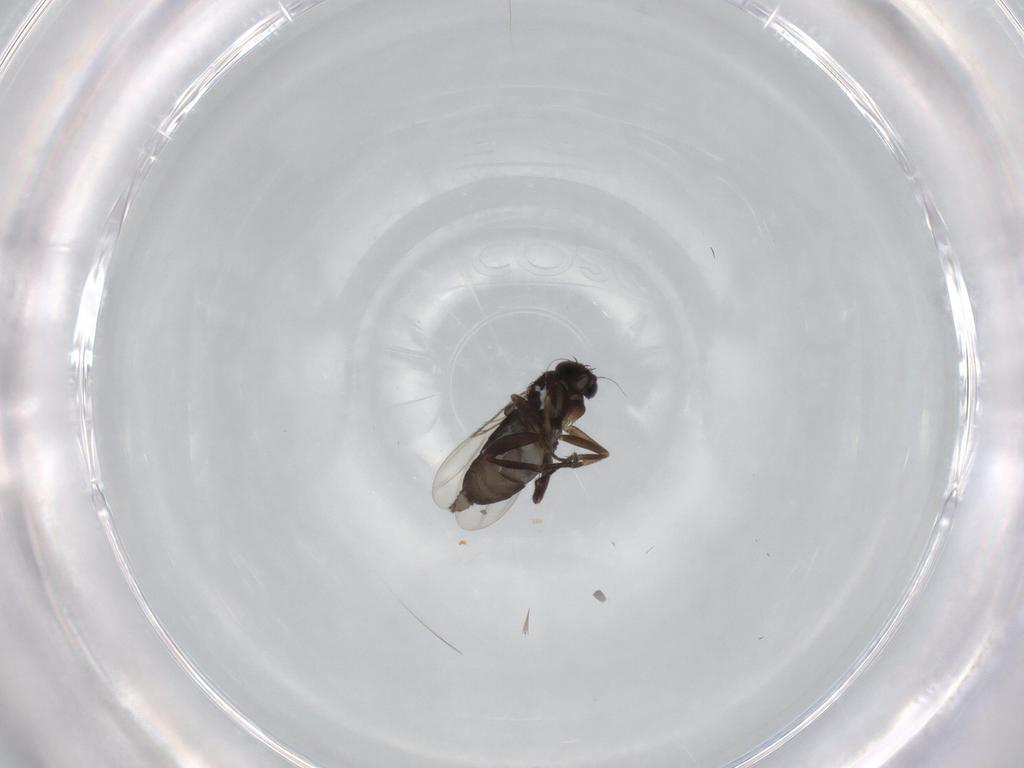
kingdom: Animalia
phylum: Arthropoda
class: Insecta
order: Diptera
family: Phoridae
